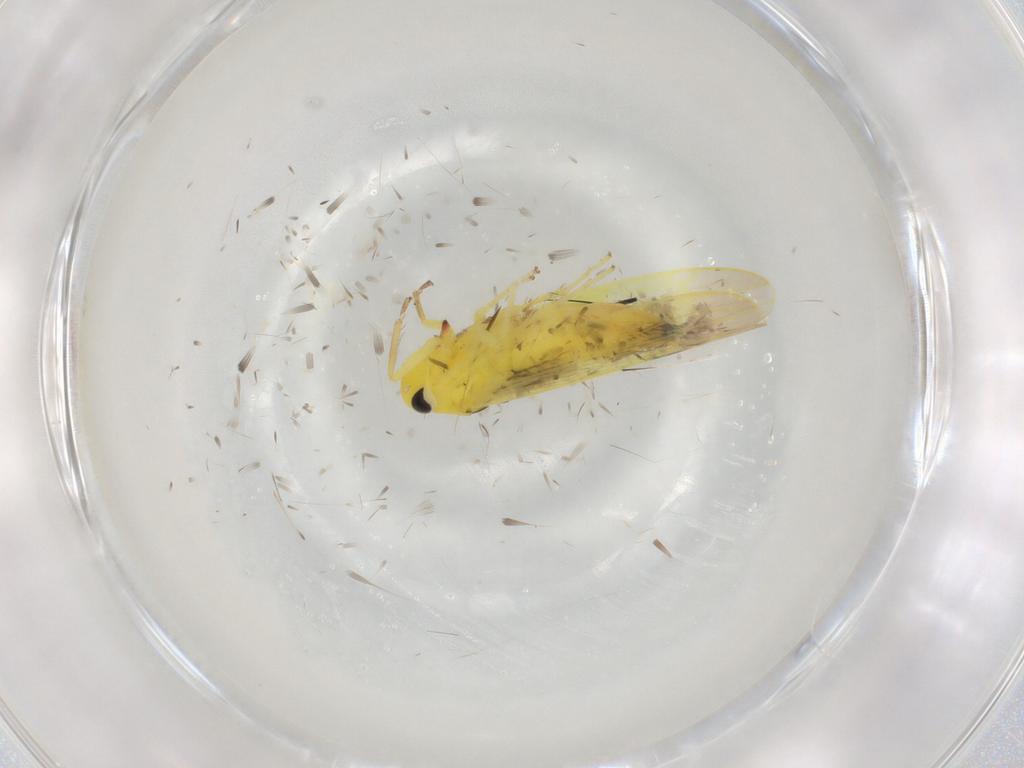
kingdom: Animalia
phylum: Arthropoda
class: Insecta
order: Hemiptera
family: Cicadellidae
